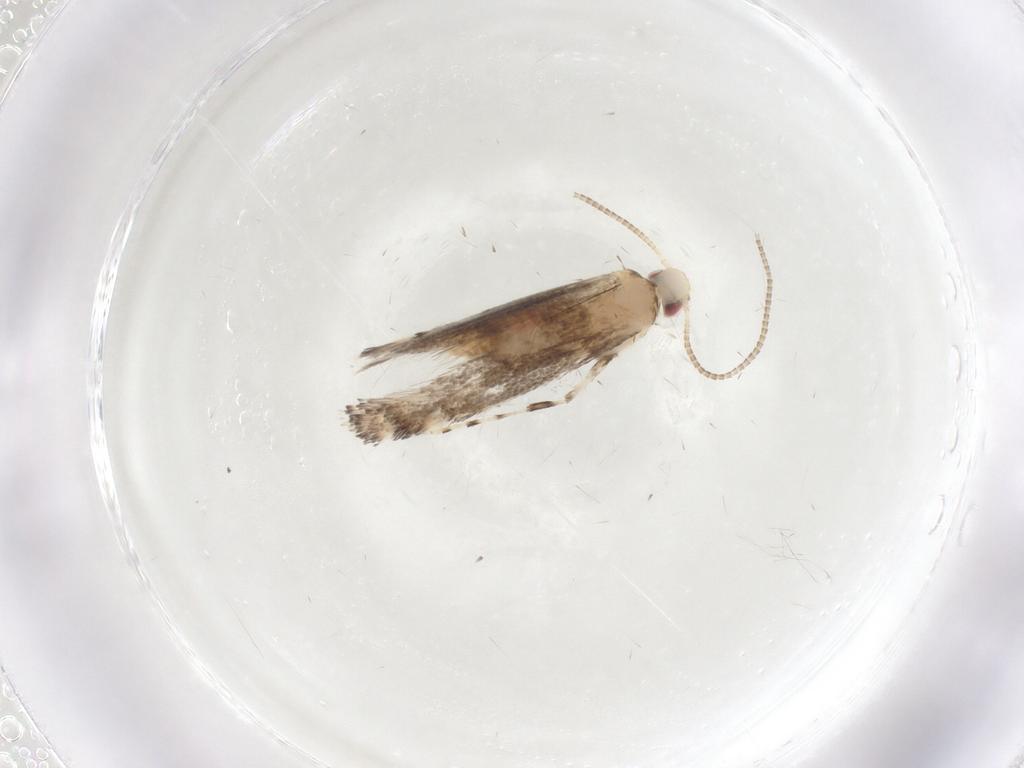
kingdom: Animalia
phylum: Arthropoda
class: Insecta
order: Lepidoptera
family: Gracillariidae
